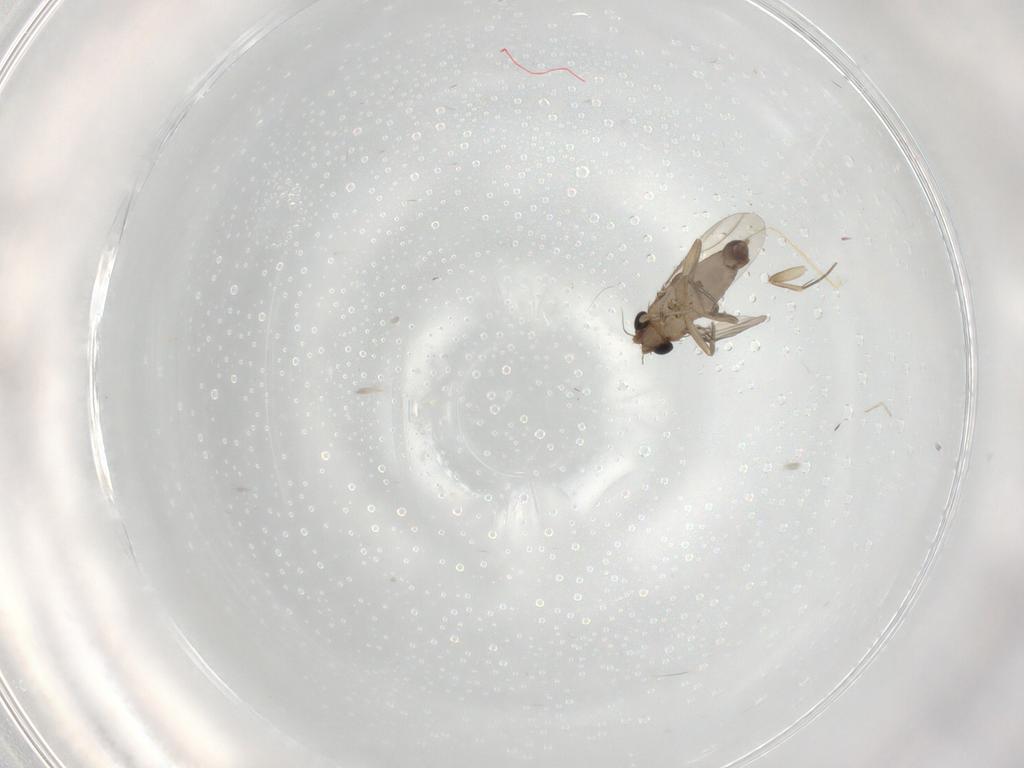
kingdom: Animalia
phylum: Arthropoda
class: Insecta
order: Diptera
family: Phoridae
